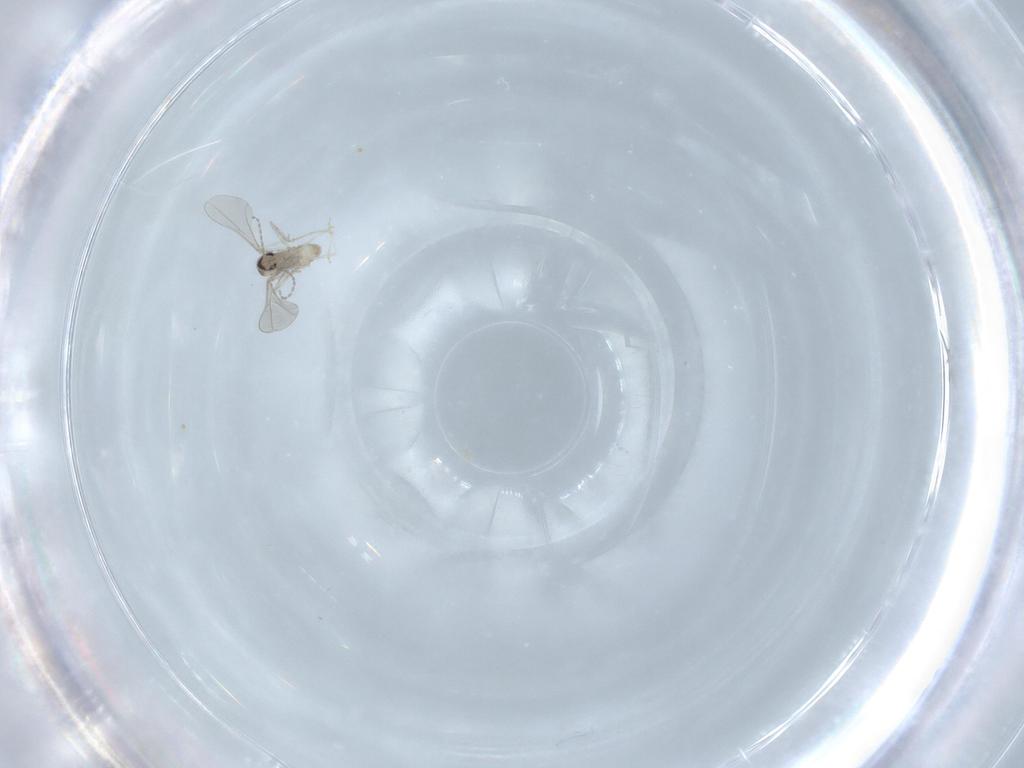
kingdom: Animalia
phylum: Arthropoda
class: Insecta
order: Diptera
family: Cecidomyiidae
